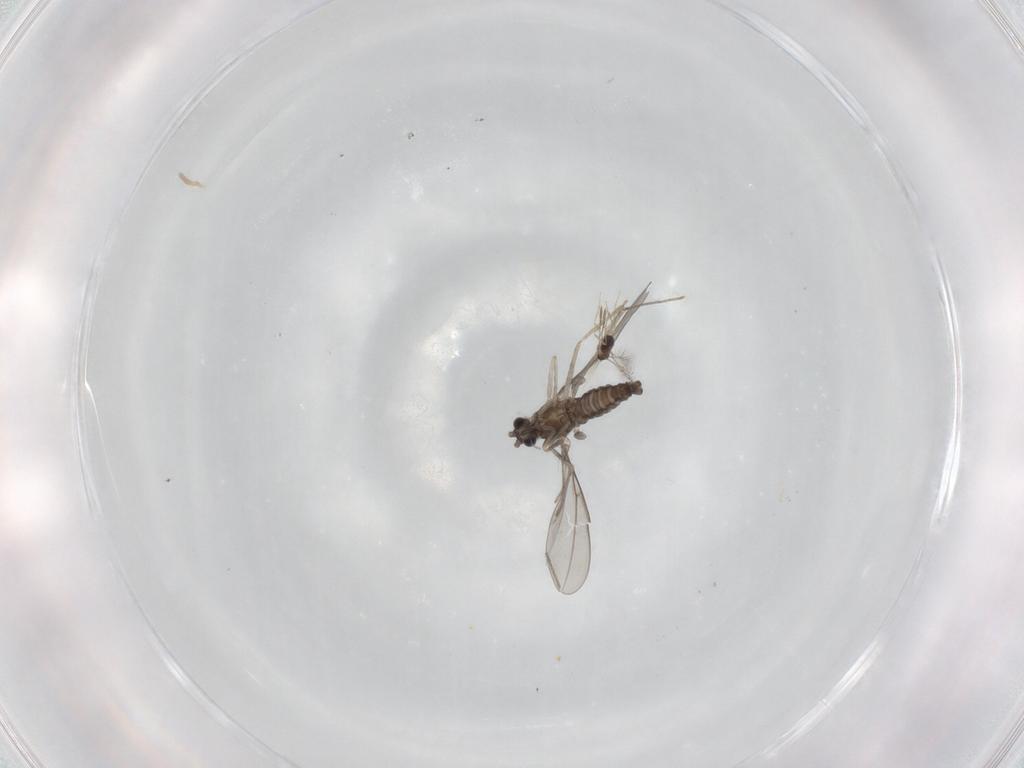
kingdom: Animalia
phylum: Arthropoda
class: Insecta
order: Diptera
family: Cecidomyiidae
